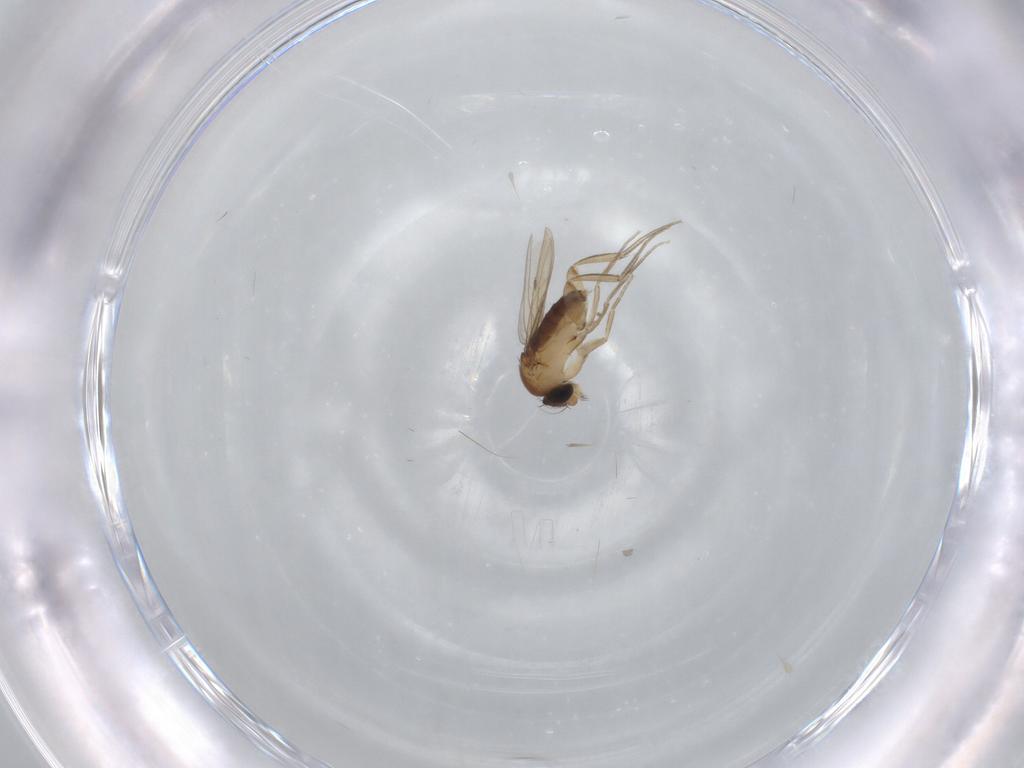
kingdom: Animalia
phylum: Arthropoda
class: Insecta
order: Diptera
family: Phoridae
